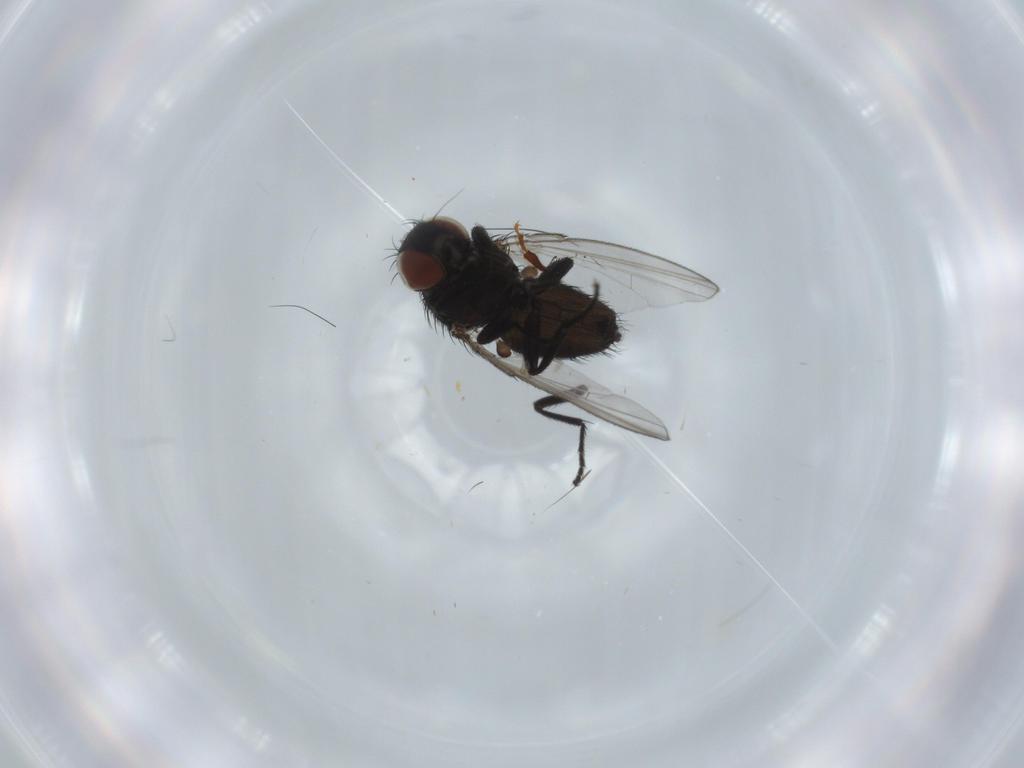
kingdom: Animalia
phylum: Arthropoda
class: Insecta
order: Diptera
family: Milichiidae
